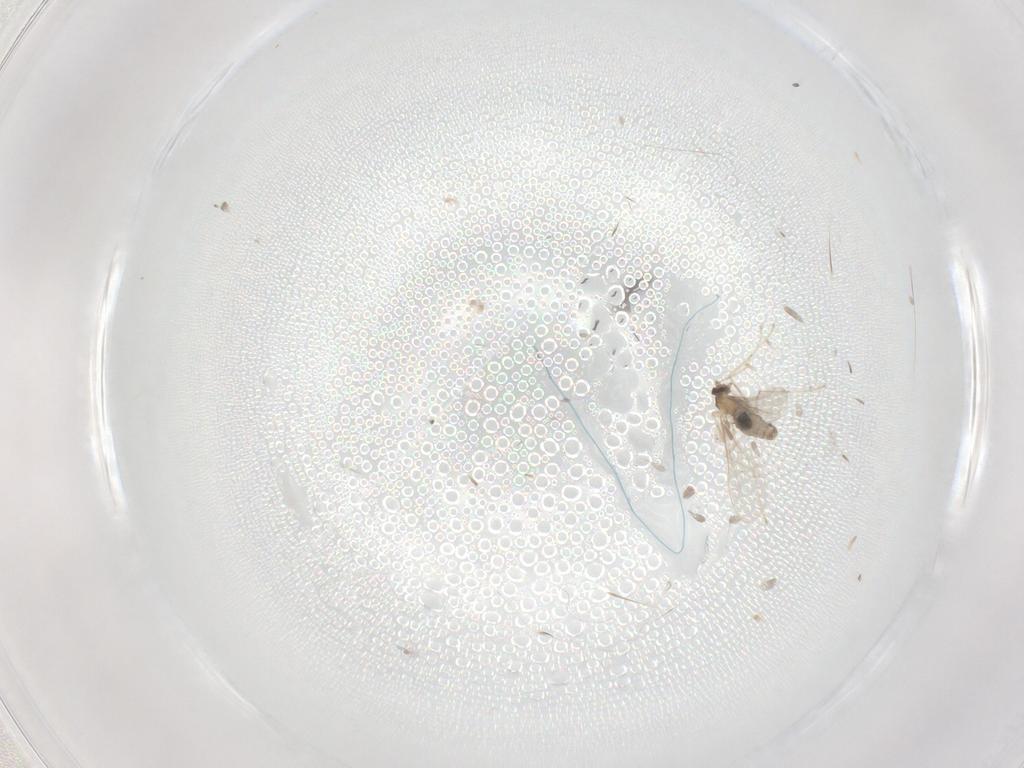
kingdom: Animalia
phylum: Arthropoda
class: Insecta
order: Diptera
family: Cecidomyiidae
